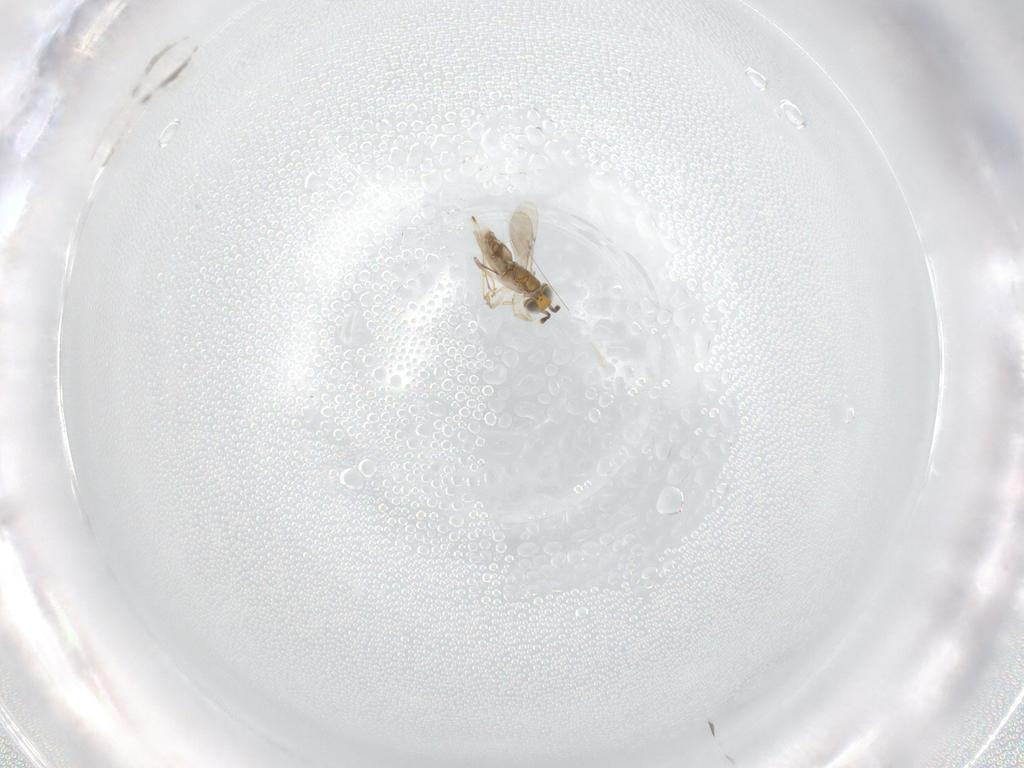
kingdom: Animalia
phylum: Arthropoda
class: Insecta
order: Hymenoptera
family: Encyrtidae
